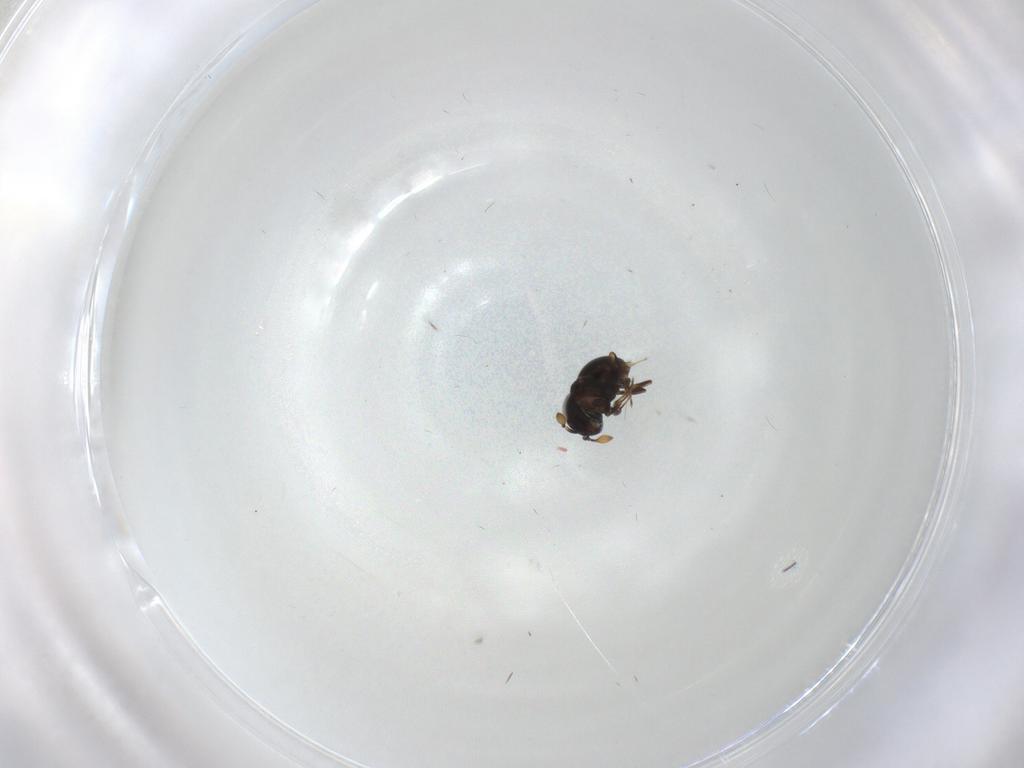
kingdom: Animalia
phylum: Arthropoda
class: Insecta
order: Hymenoptera
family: Scelionidae
